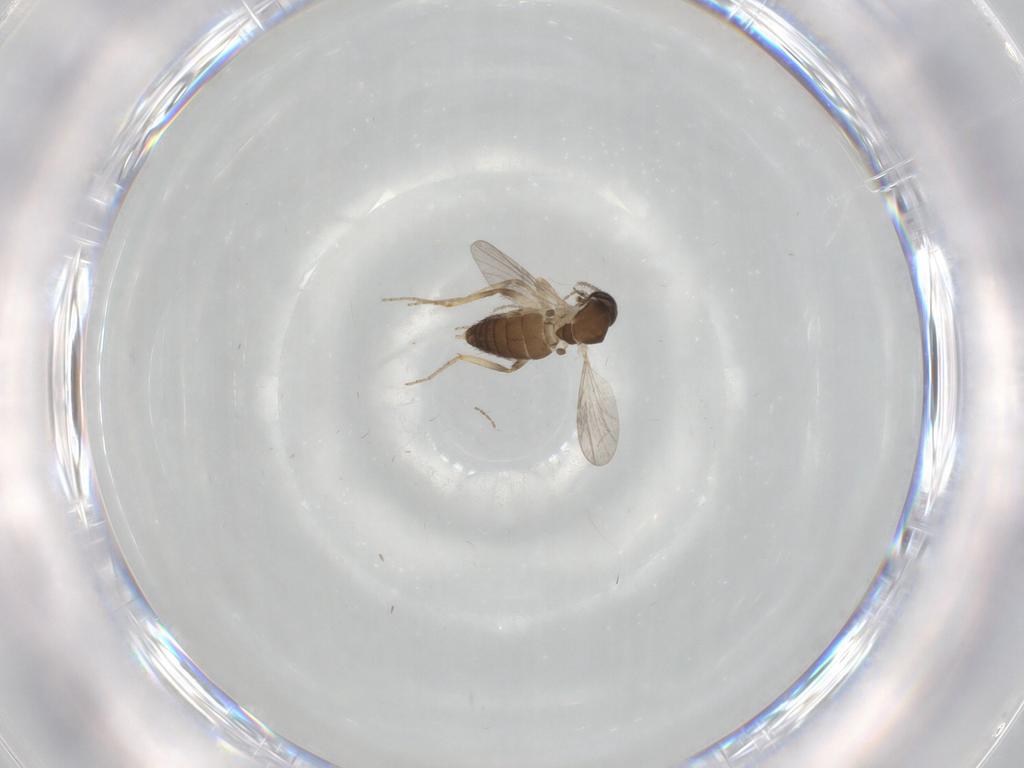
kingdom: Animalia
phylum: Arthropoda
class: Insecta
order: Diptera
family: Ceratopogonidae
